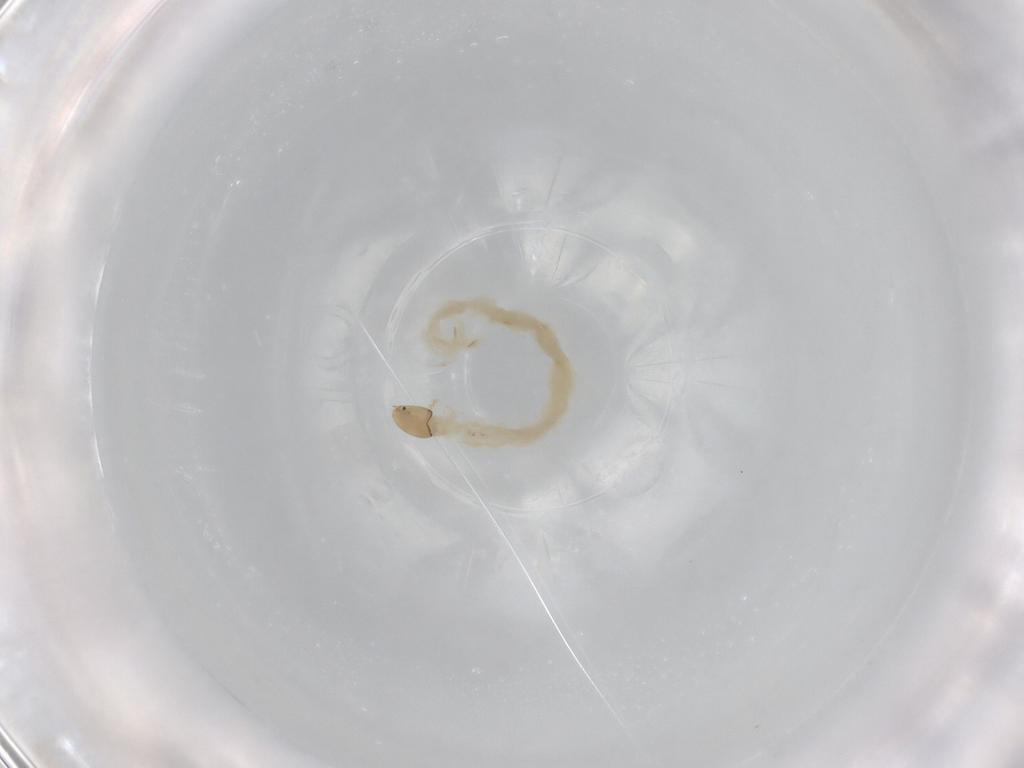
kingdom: Animalia
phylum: Arthropoda
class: Insecta
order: Diptera
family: Chironomidae
